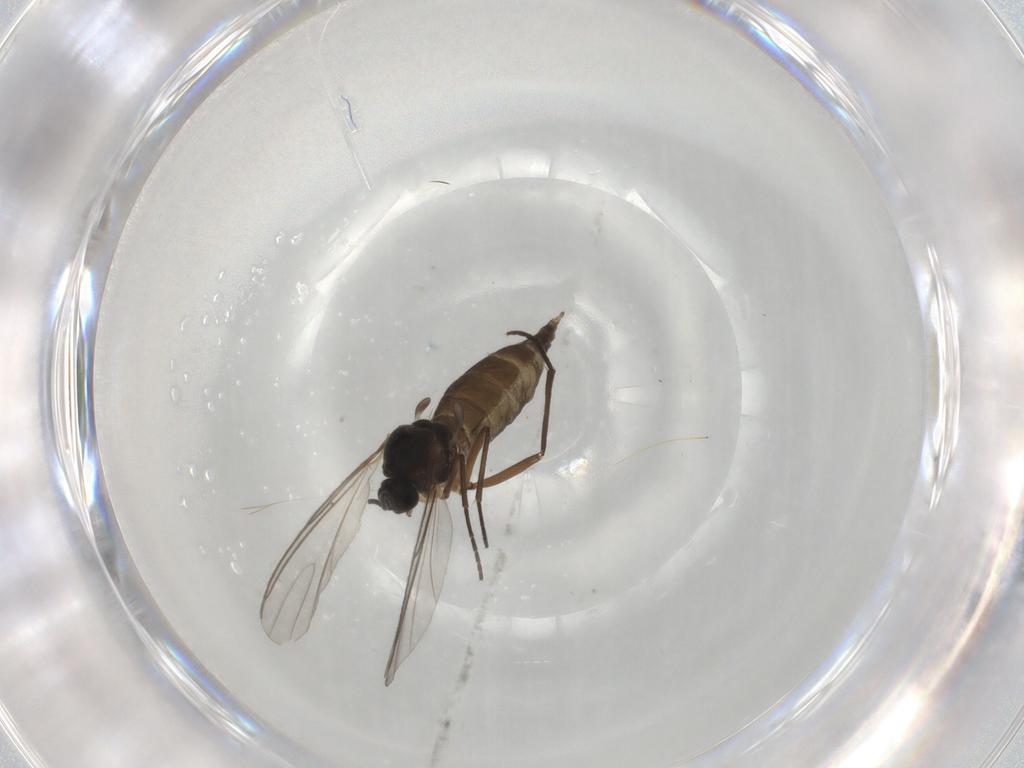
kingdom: Animalia
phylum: Arthropoda
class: Insecta
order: Diptera
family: Sciaridae
